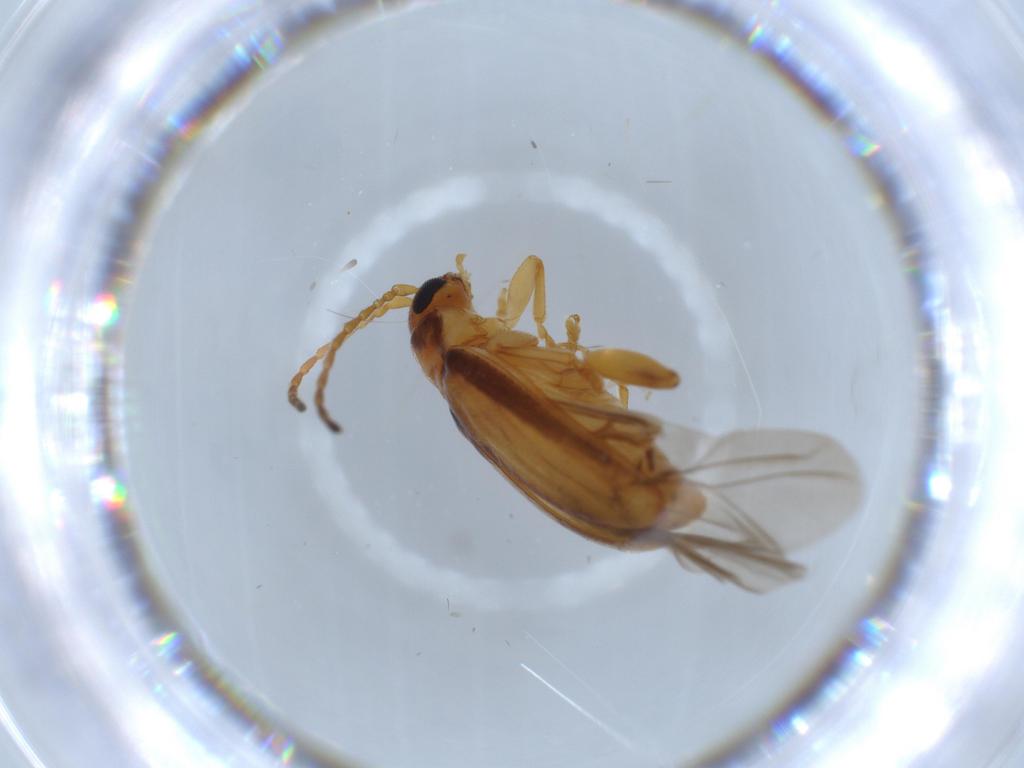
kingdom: Animalia
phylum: Arthropoda
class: Insecta
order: Coleoptera
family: Chrysomelidae
